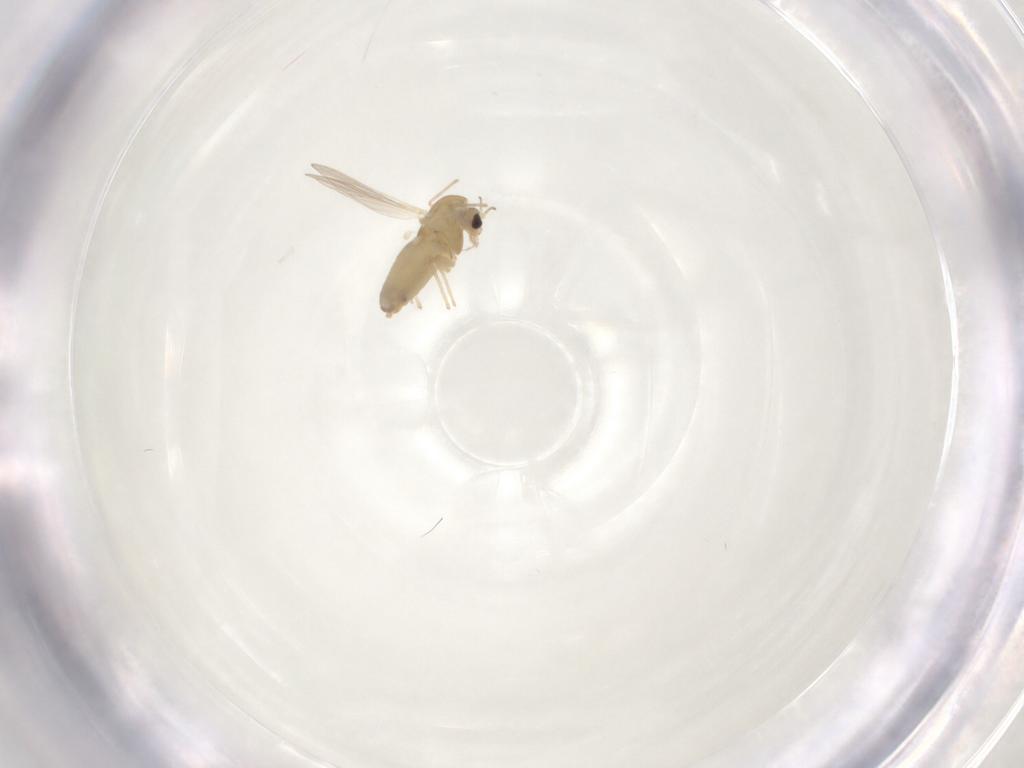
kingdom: Animalia
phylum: Arthropoda
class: Insecta
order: Diptera
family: Chironomidae
